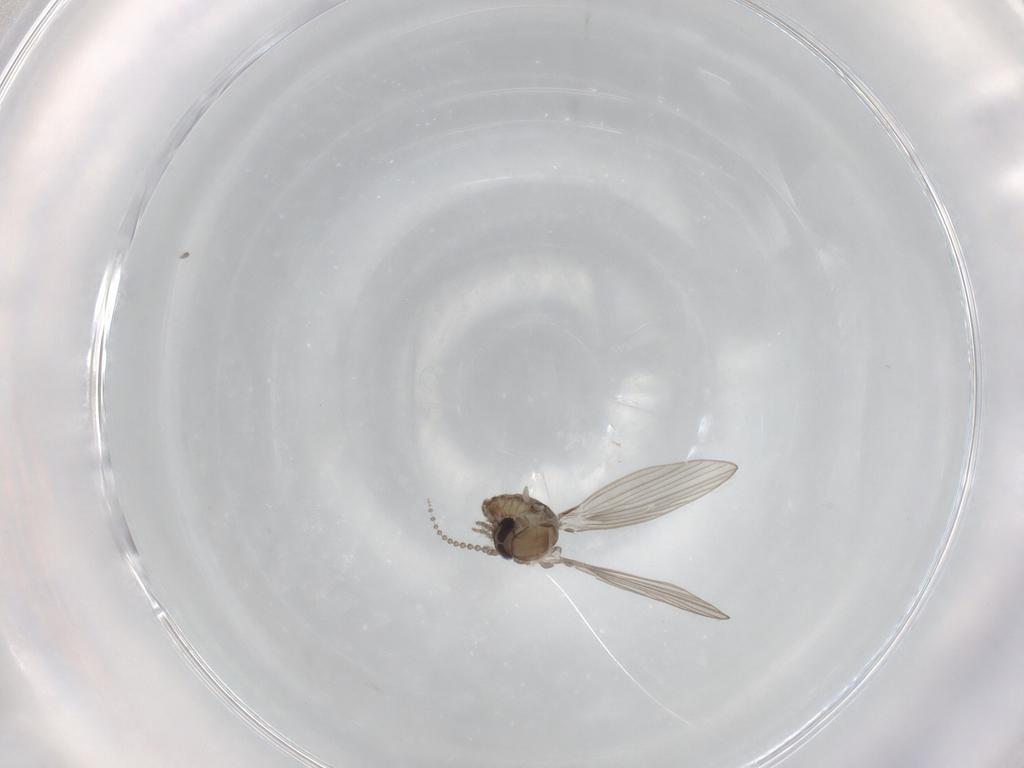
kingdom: Animalia
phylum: Arthropoda
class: Insecta
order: Diptera
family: Psychodidae
